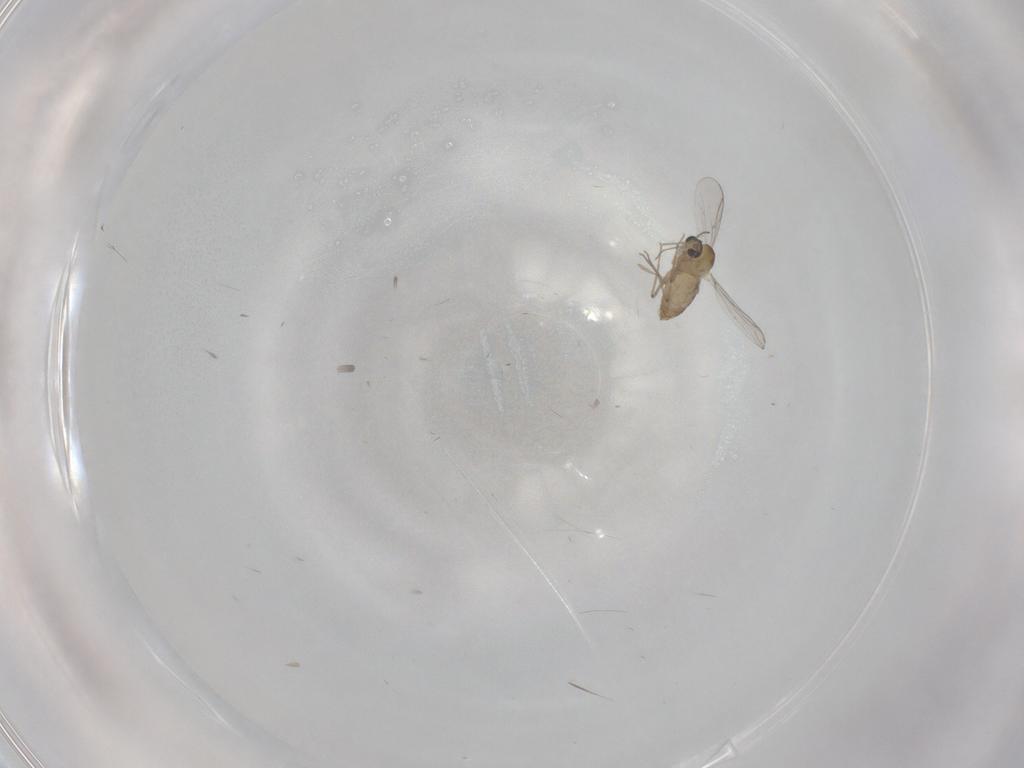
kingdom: Animalia
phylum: Arthropoda
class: Insecta
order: Diptera
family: Chironomidae
